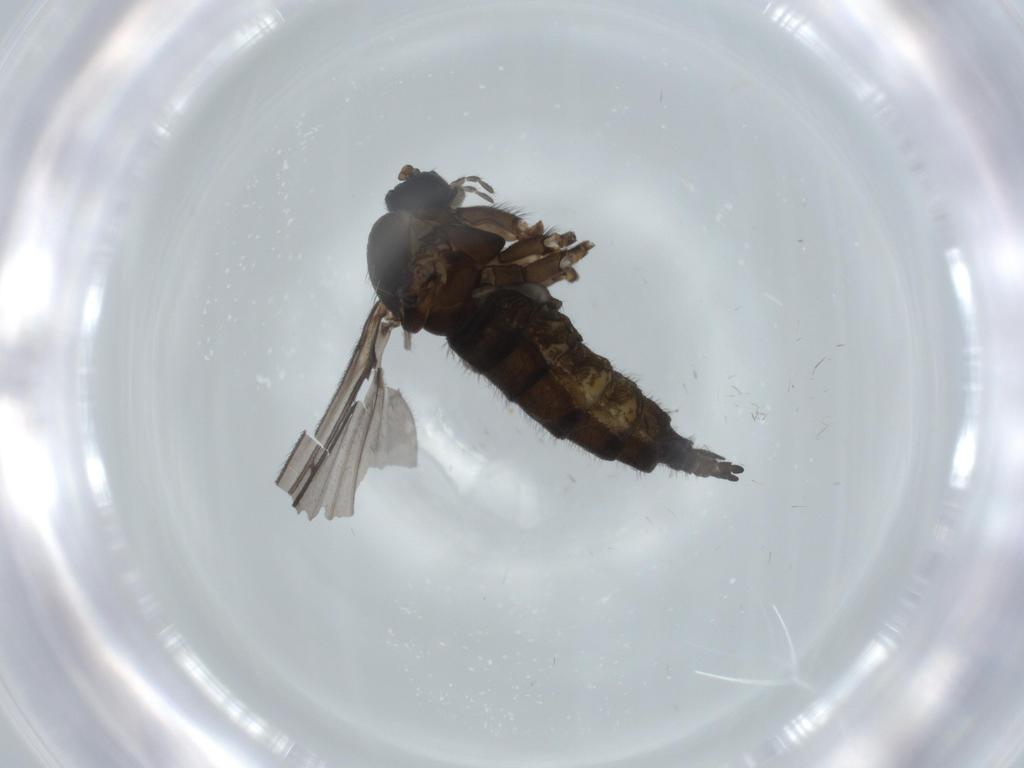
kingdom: Animalia
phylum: Arthropoda
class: Insecta
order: Diptera
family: Sciaridae
